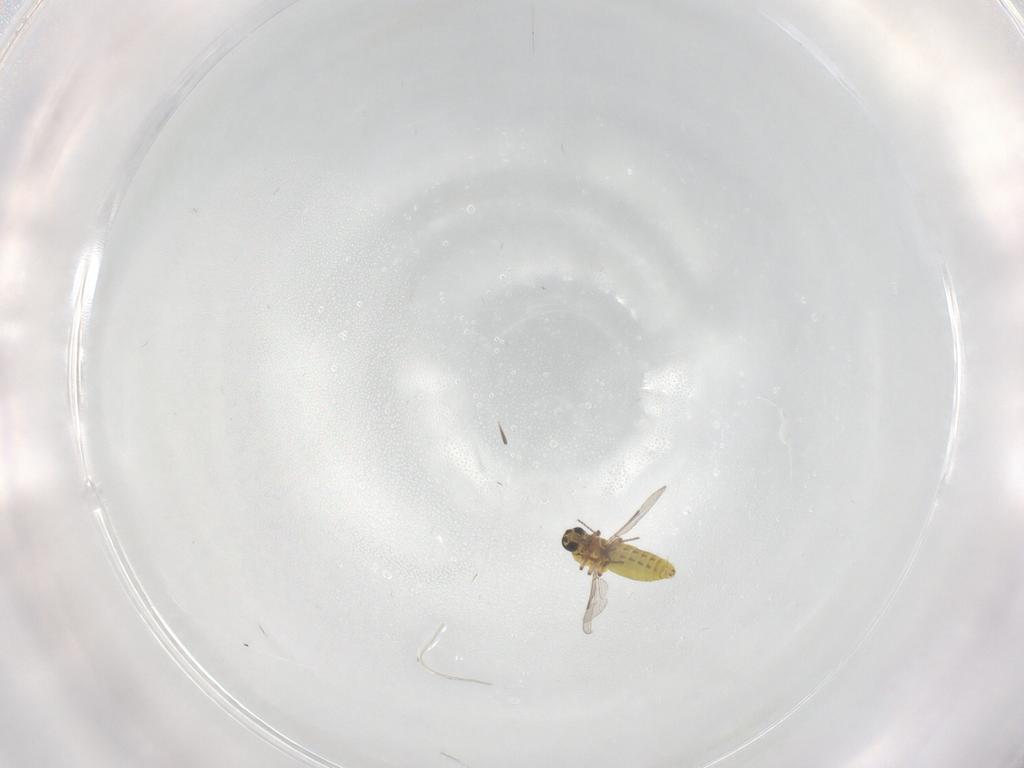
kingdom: Animalia
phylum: Arthropoda
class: Insecta
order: Diptera
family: Ceratopogonidae
